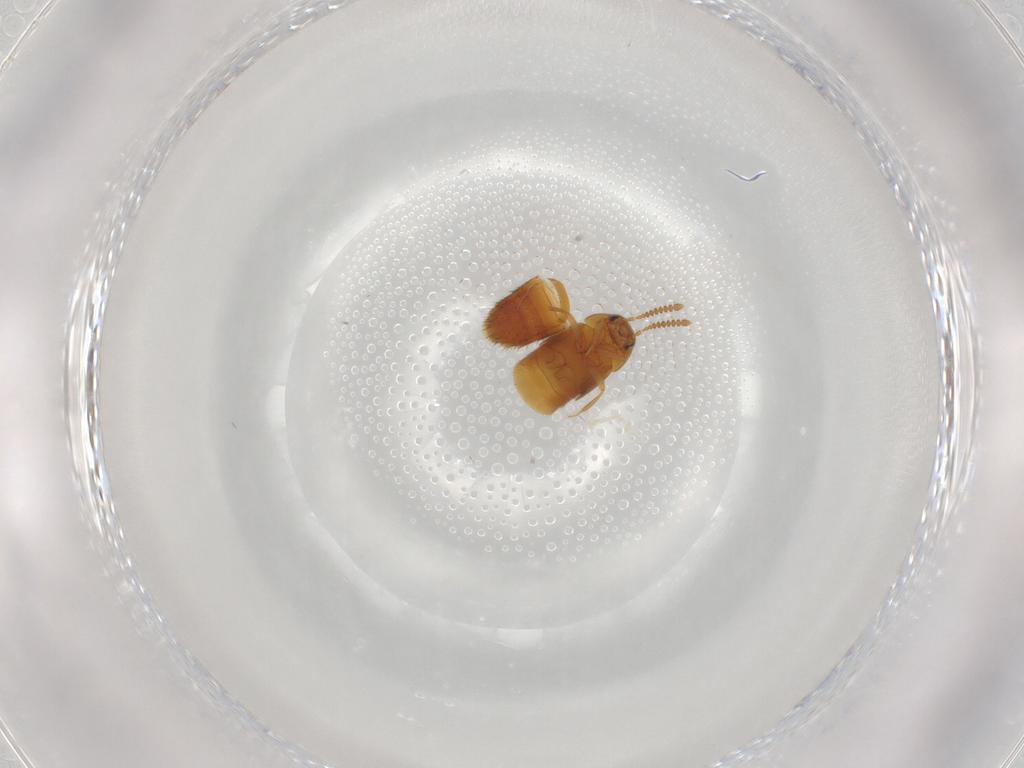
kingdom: Animalia
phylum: Arthropoda
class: Insecta
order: Coleoptera
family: Staphylinidae
